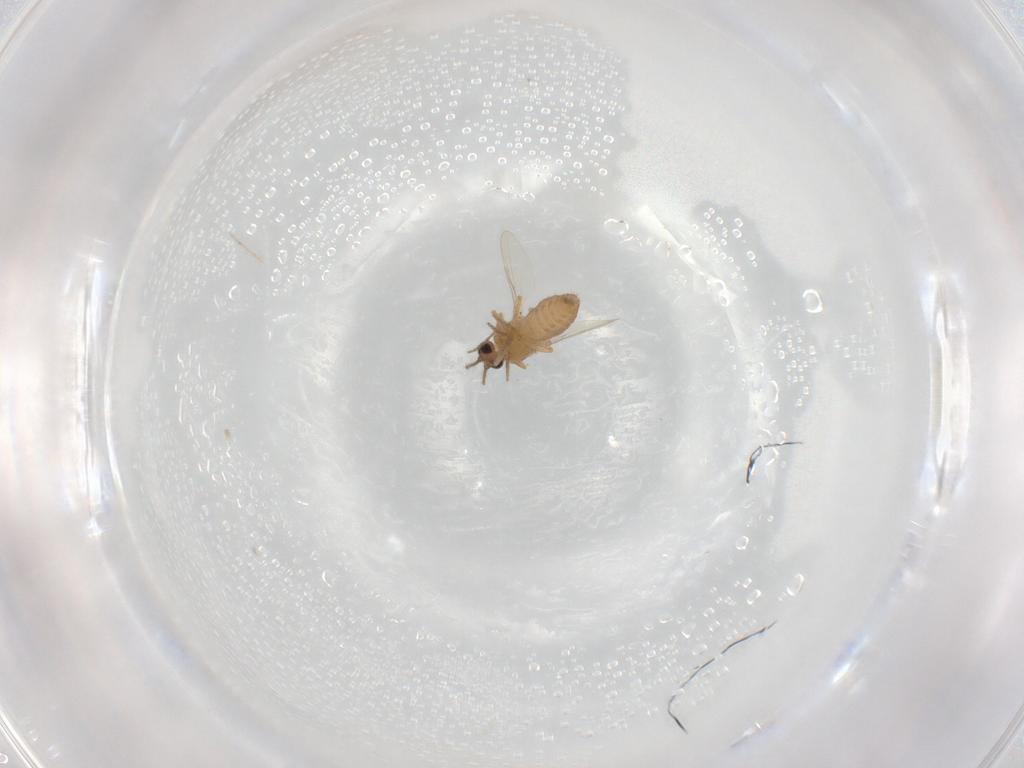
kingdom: Animalia
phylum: Arthropoda
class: Insecta
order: Diptera
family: Ceratopogonidae
